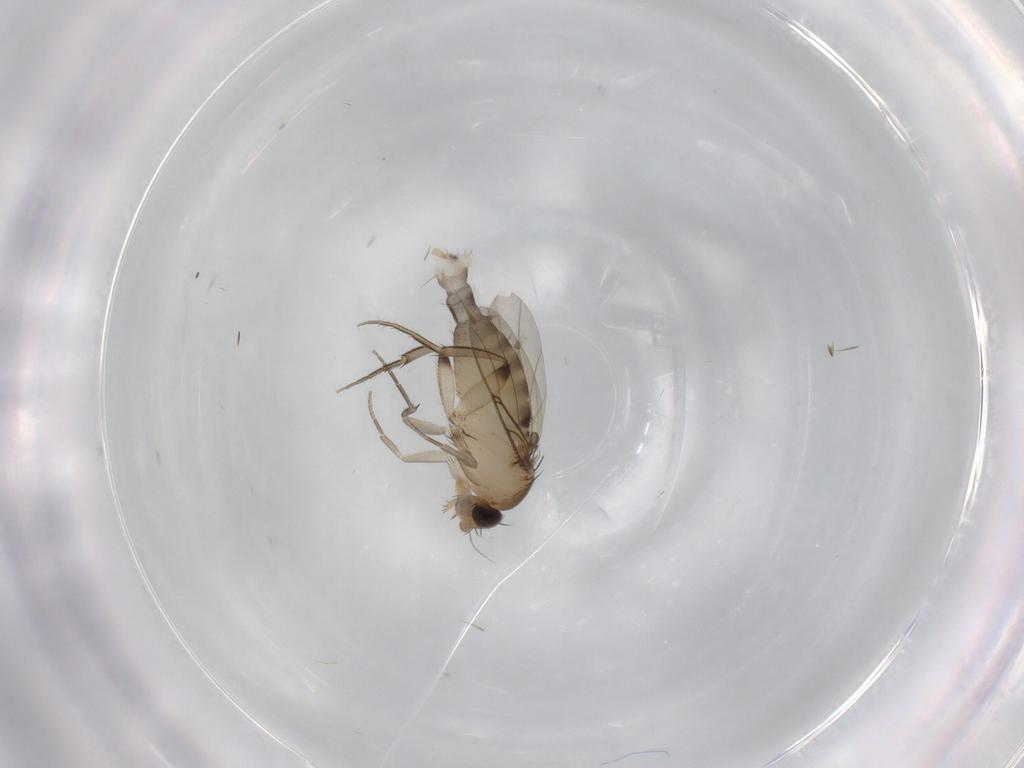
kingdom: Animalia
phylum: Arthropoda
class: Insecta
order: Diptera
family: Phoridae
